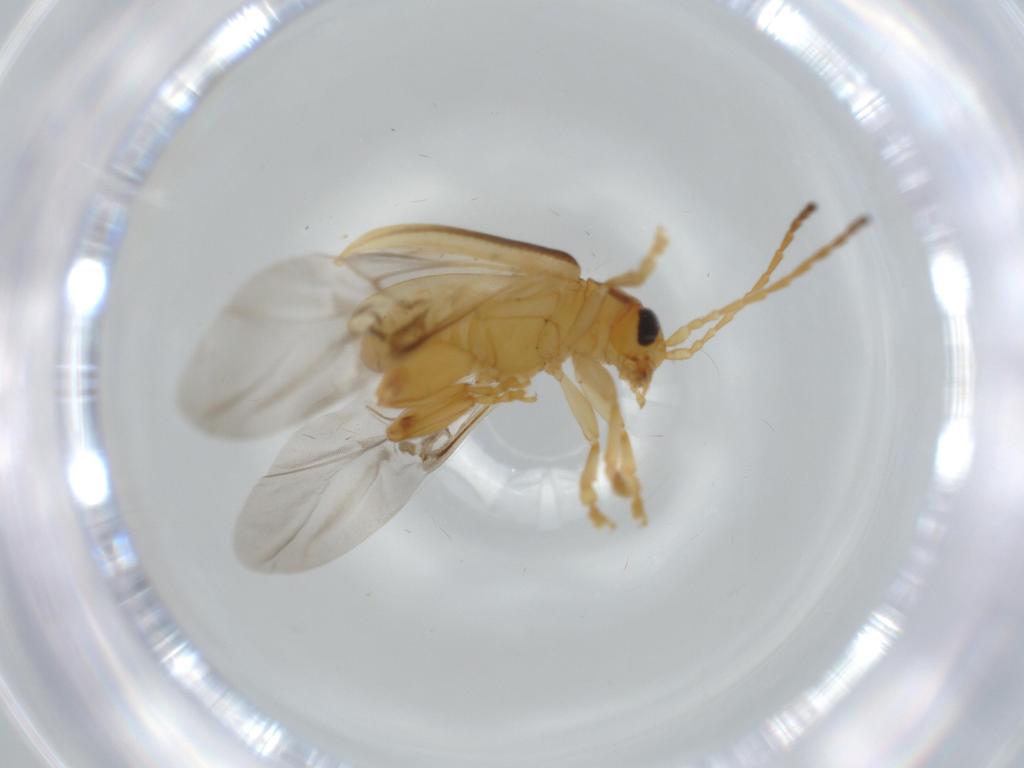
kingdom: Animalia
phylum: Arthropoda
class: Insecta
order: Coleoptera
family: Chrysomelidae
